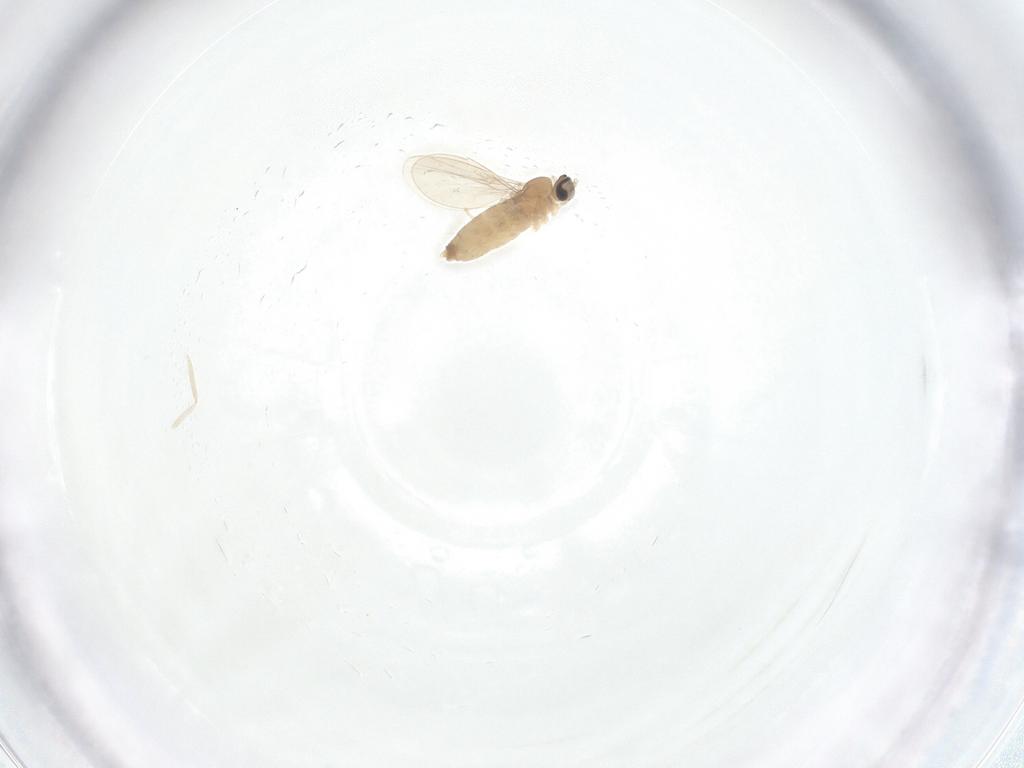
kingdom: Animalia
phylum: Arthropoda
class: Insecta
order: Diptera
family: Cecidomyiidae
